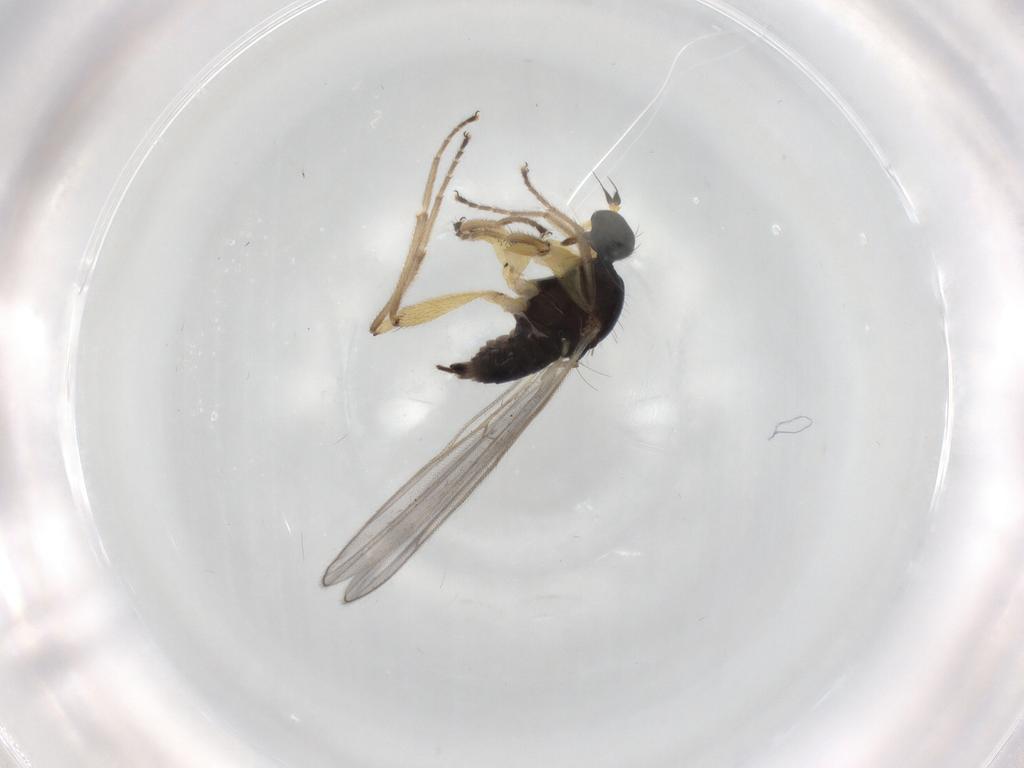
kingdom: Animalia
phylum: Arthropoda
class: Insecta
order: Diptera
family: Hybotidae
